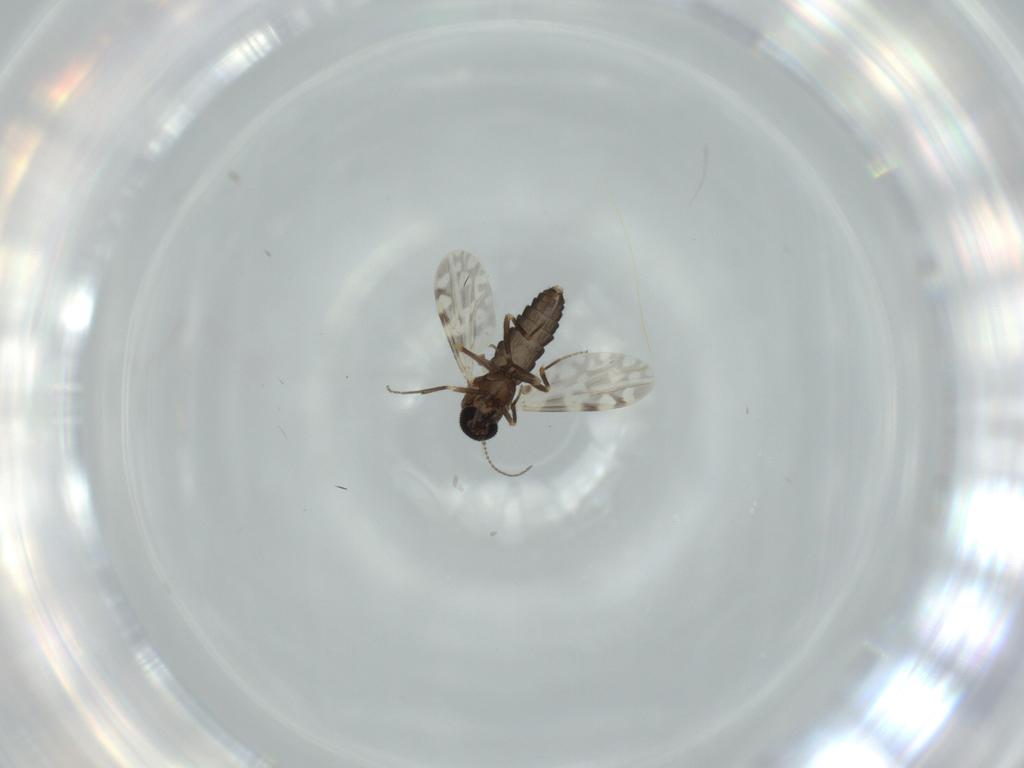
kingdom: Animalia
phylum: Arthropoda
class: Insecta
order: Diptera
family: Ceratopogonidae
